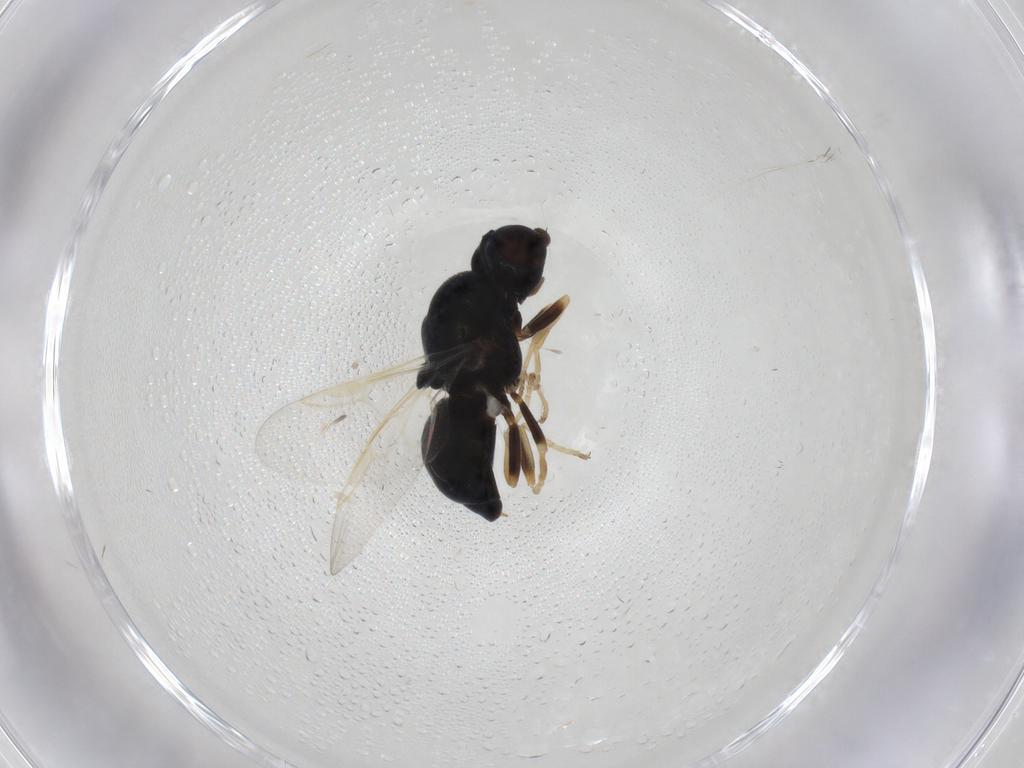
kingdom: Animalia
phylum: Arthropoda
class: Insecta
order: Diptera
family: Stratiomyidae
